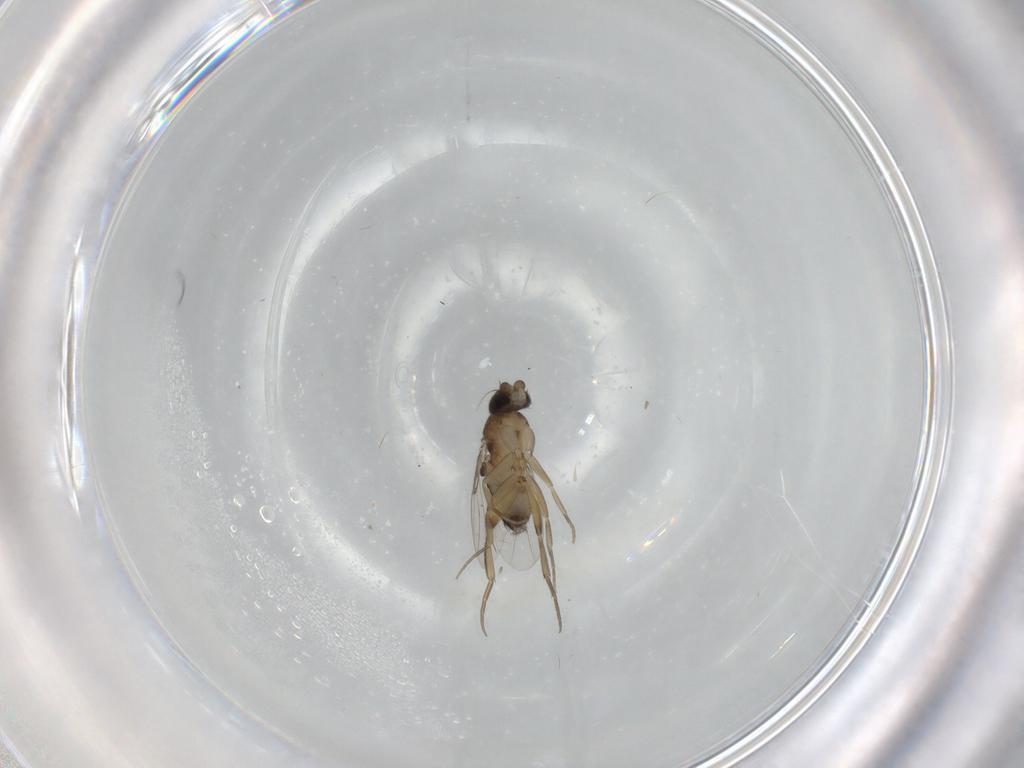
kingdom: Animalia
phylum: Arthropoda
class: Insecta
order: Diptera
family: Phoridae
